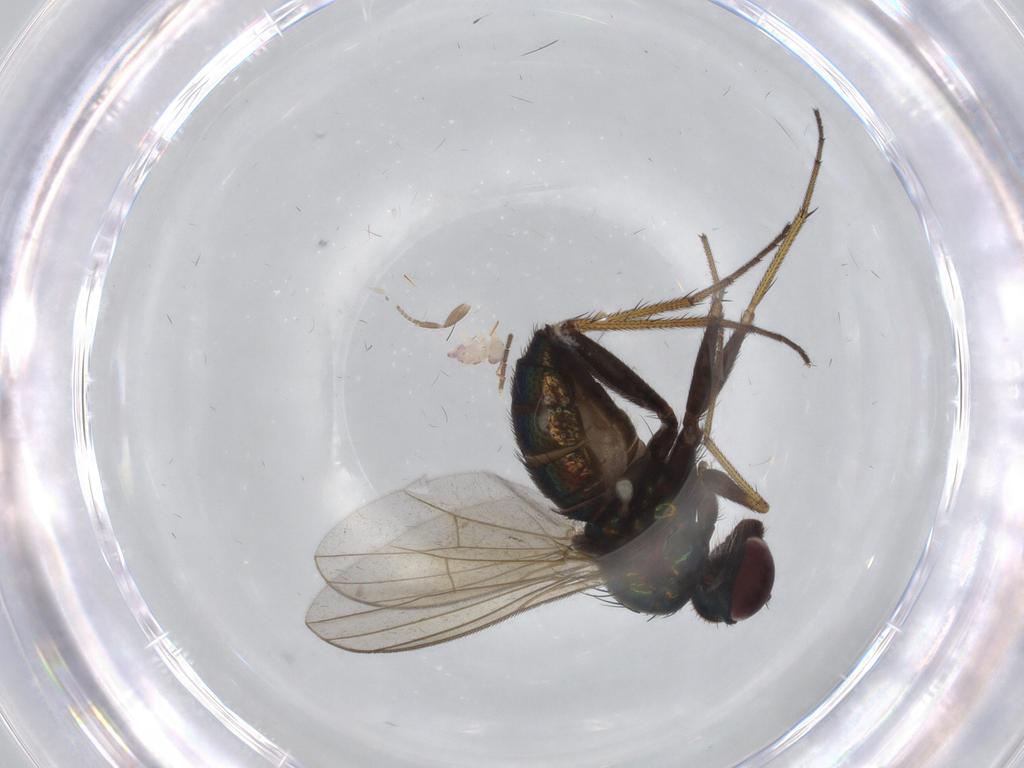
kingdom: Animalia
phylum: Arthropoda
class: Insecta
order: Diptera
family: Dolichopodidae
